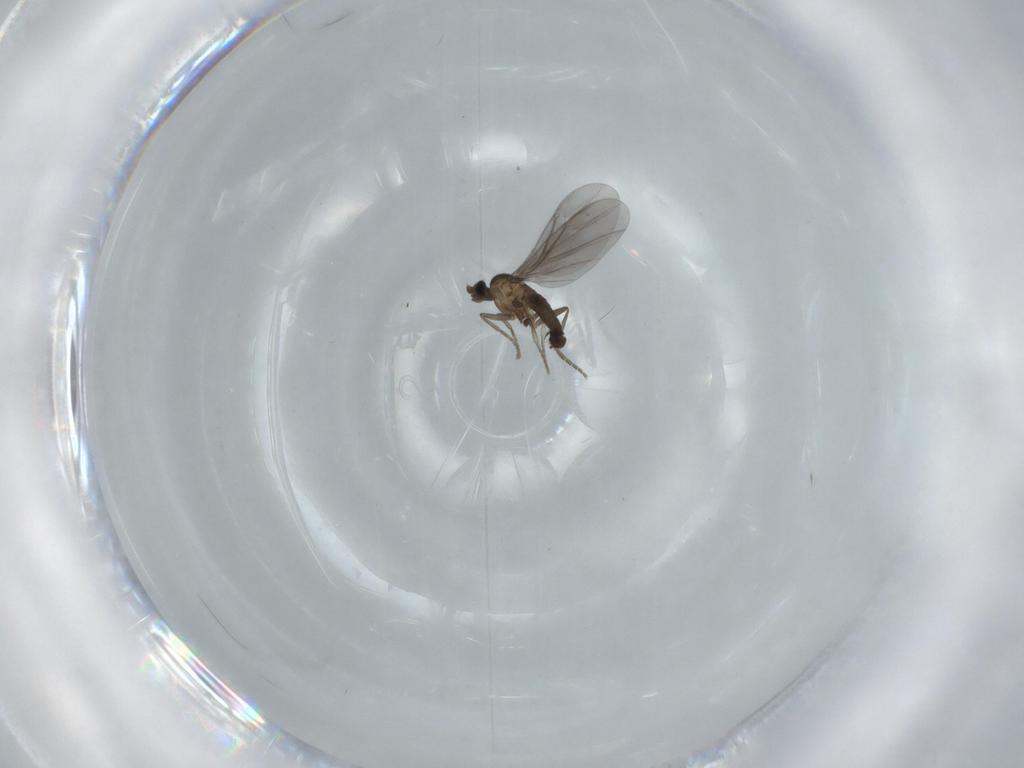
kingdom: Animalia
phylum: Arthropoda
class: Insecta
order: Diptera
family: Phoridae
